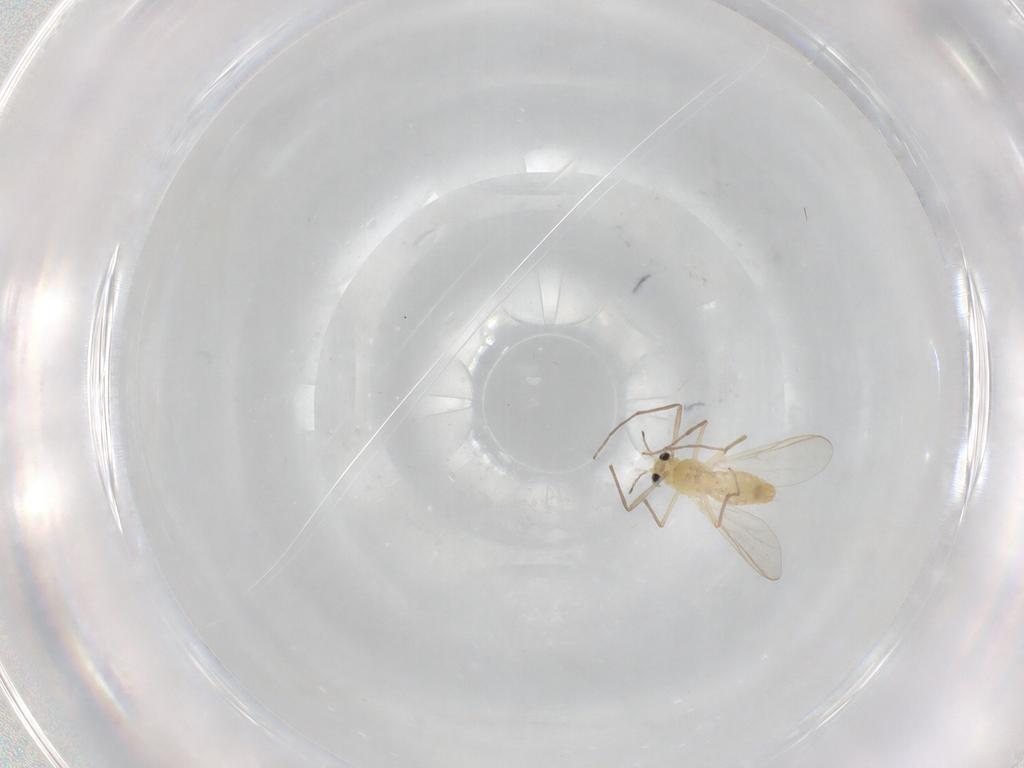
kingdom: Animalia
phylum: Arthropoda
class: Insecta
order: Diptera
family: Chironomidae
